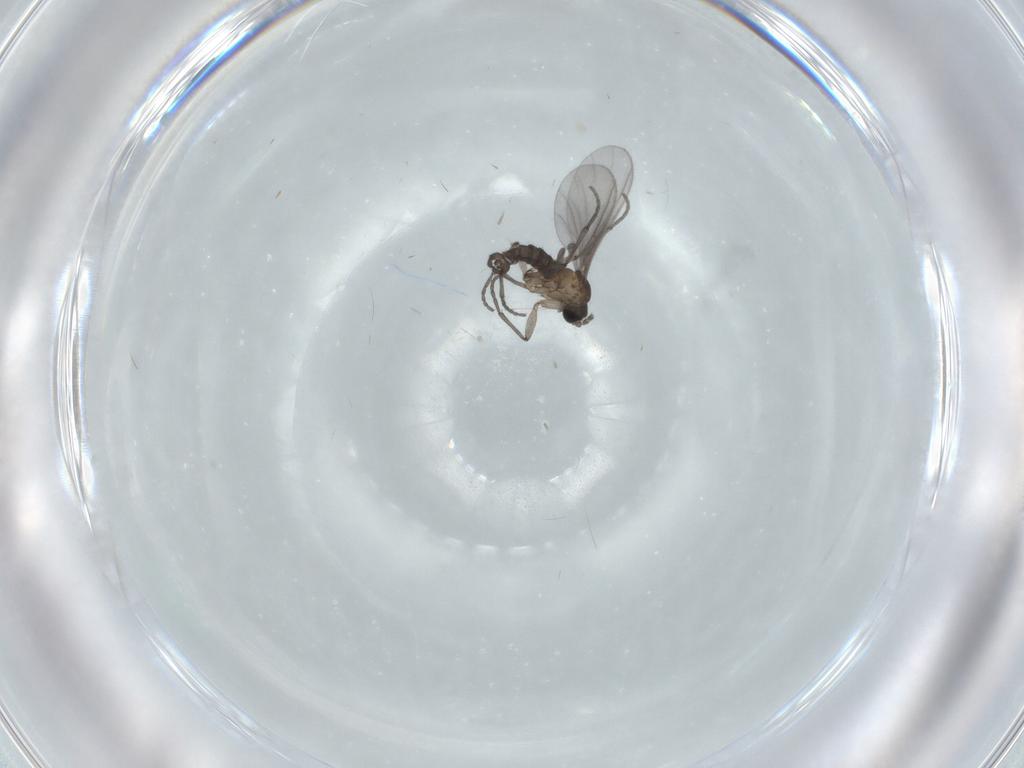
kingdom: Animalia
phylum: Arthropoda
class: Insecta
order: Diptera
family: Sciaridae
